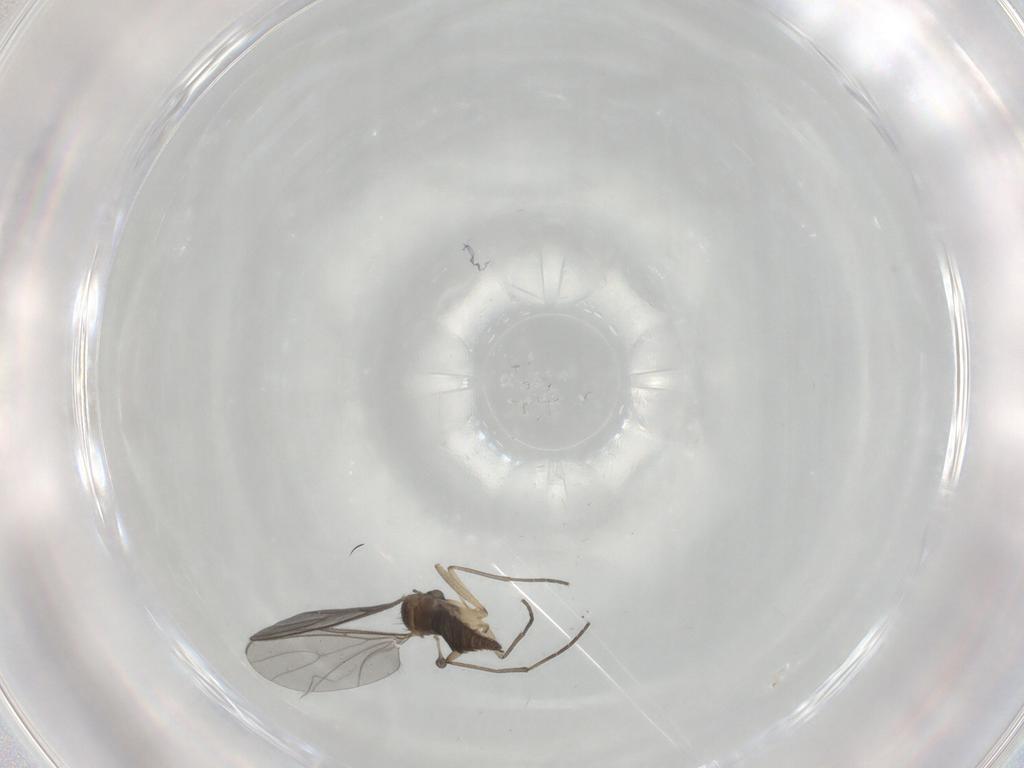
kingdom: Animalia
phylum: Arthropoda
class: Insecta
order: Diptera
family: Sciaridae
